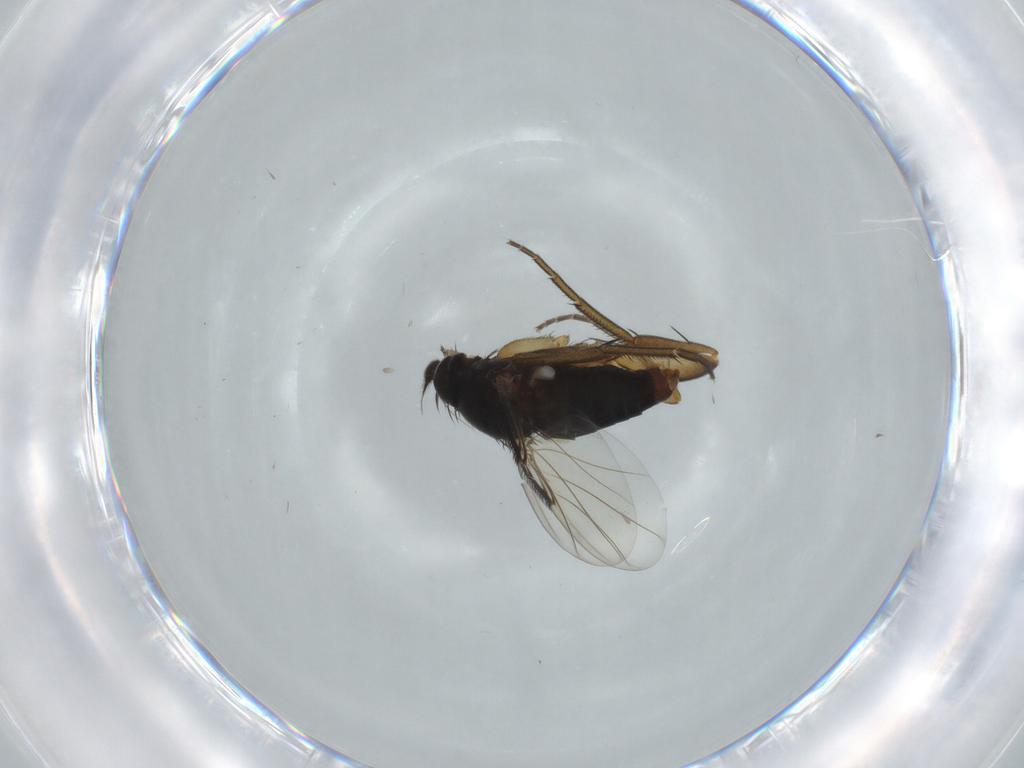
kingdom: Animalia
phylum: Arthropoda
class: Insecta
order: Diptera
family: Phoridae
